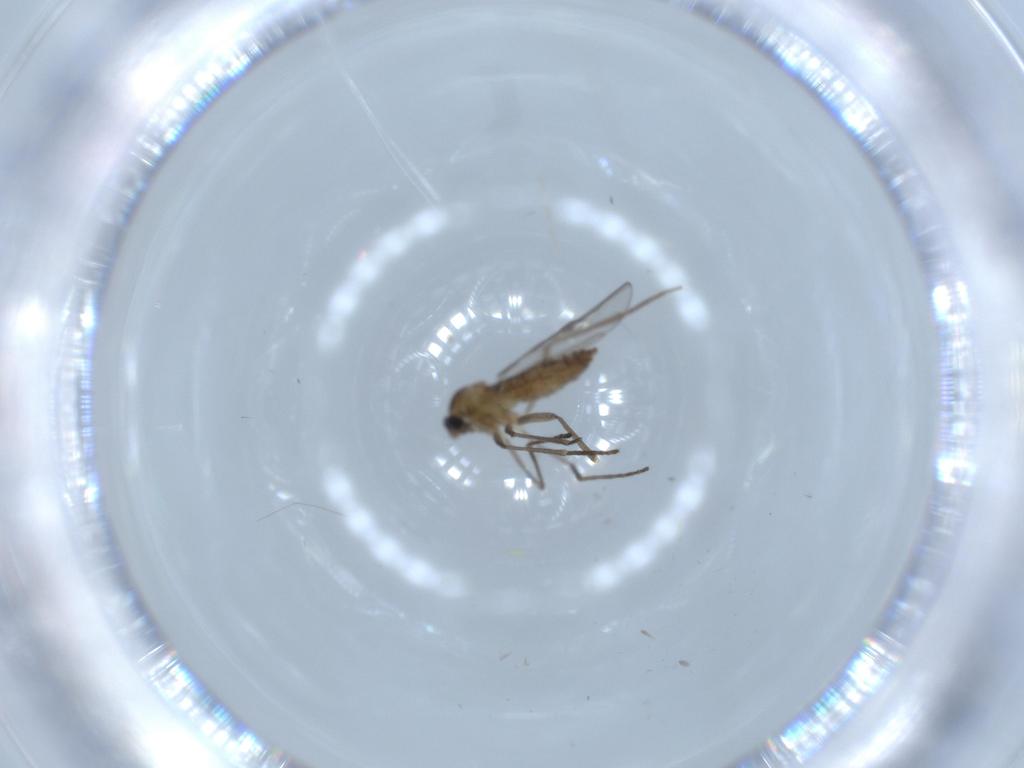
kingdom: Animalia
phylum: Arthropoda
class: Insecta
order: Diptera
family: Cecidomyiidae
